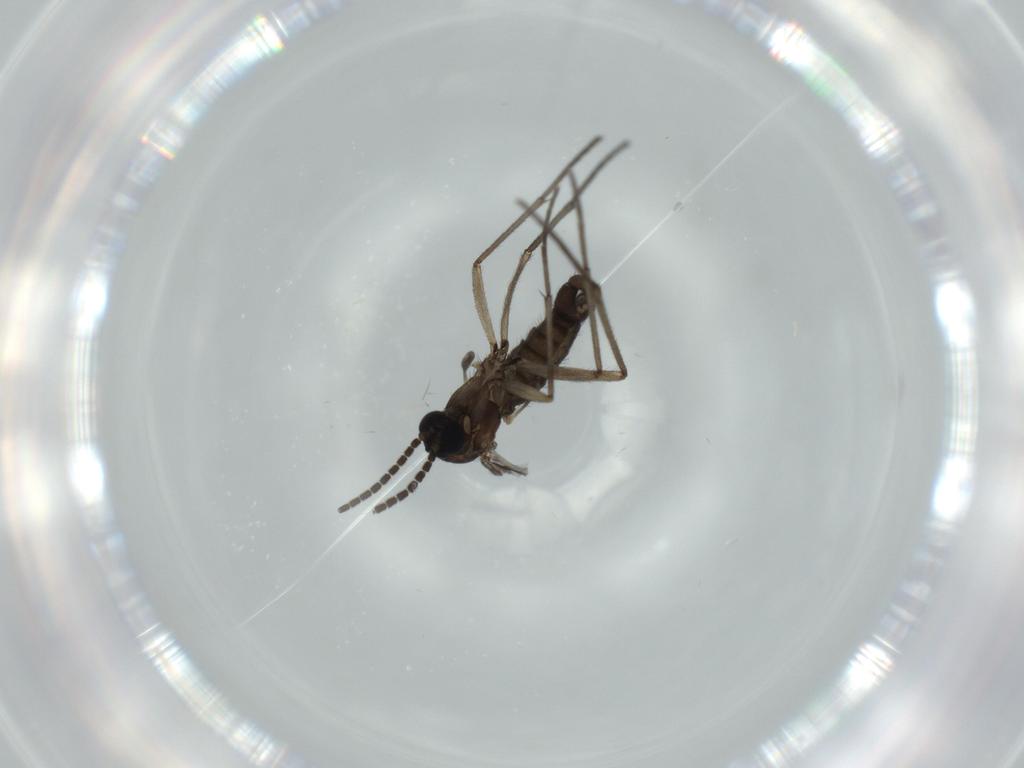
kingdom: Animalia
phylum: Arthropoda
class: Insecta
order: Diptera
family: Sciaridae
